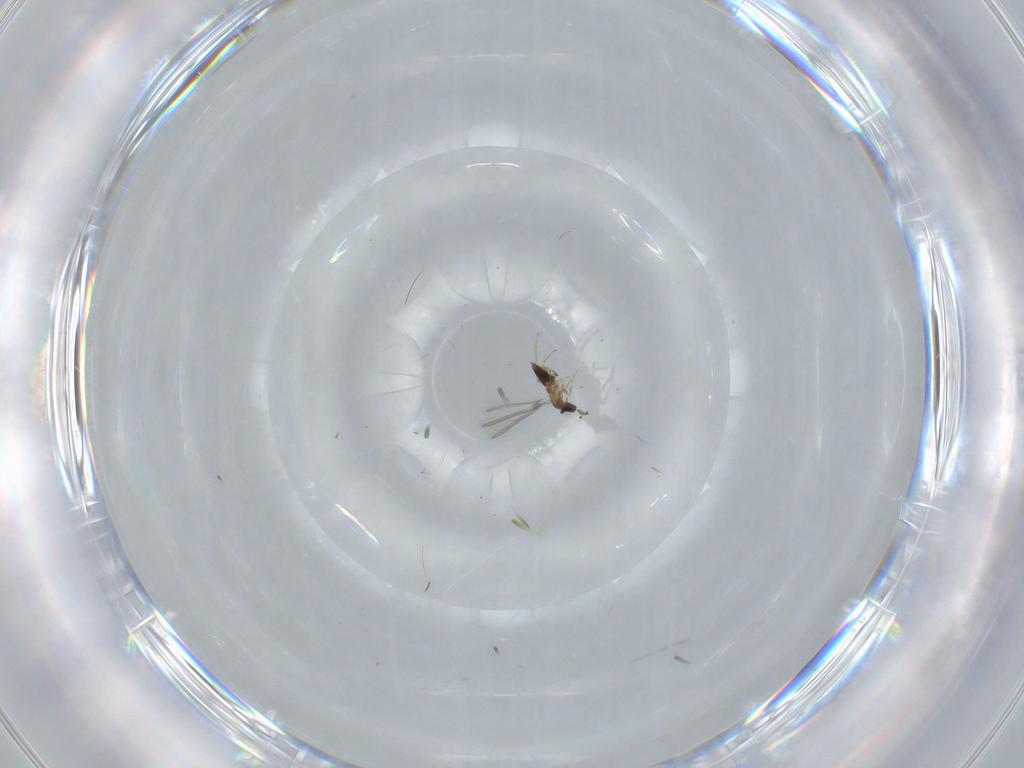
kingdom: Animalia
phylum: Arthropoda
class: Insecta
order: Hymenoptera
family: Mymaridae
